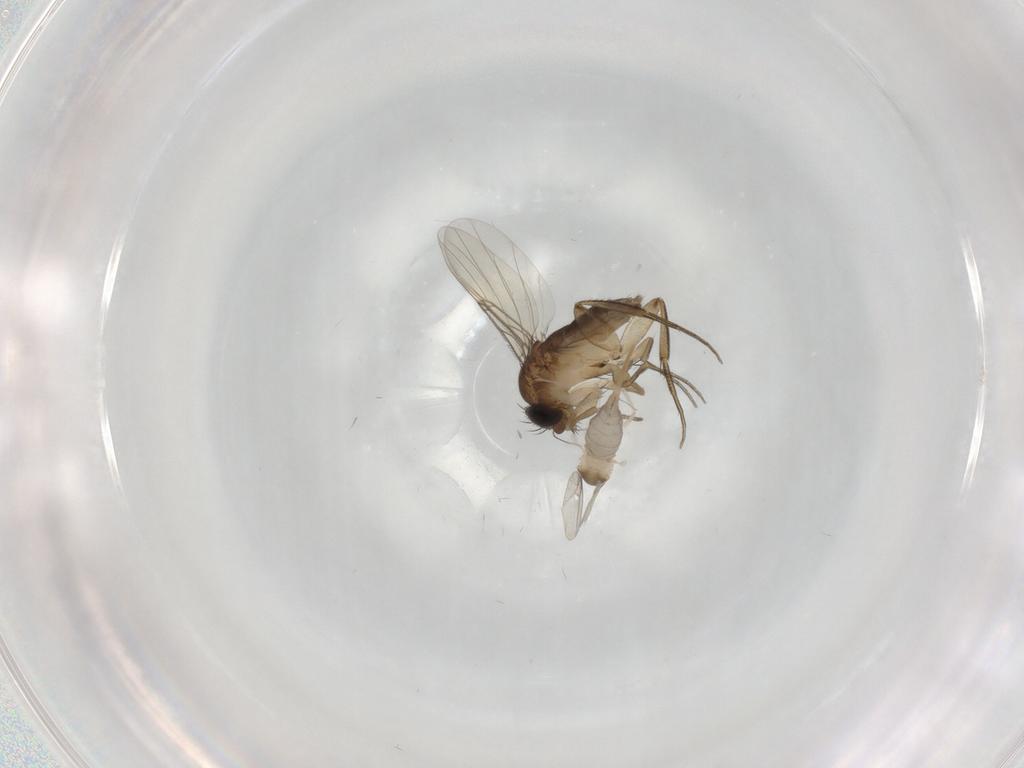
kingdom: Animalia
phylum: Arthropoda
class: Insecta
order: Diptera
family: Cecidomyiidae
